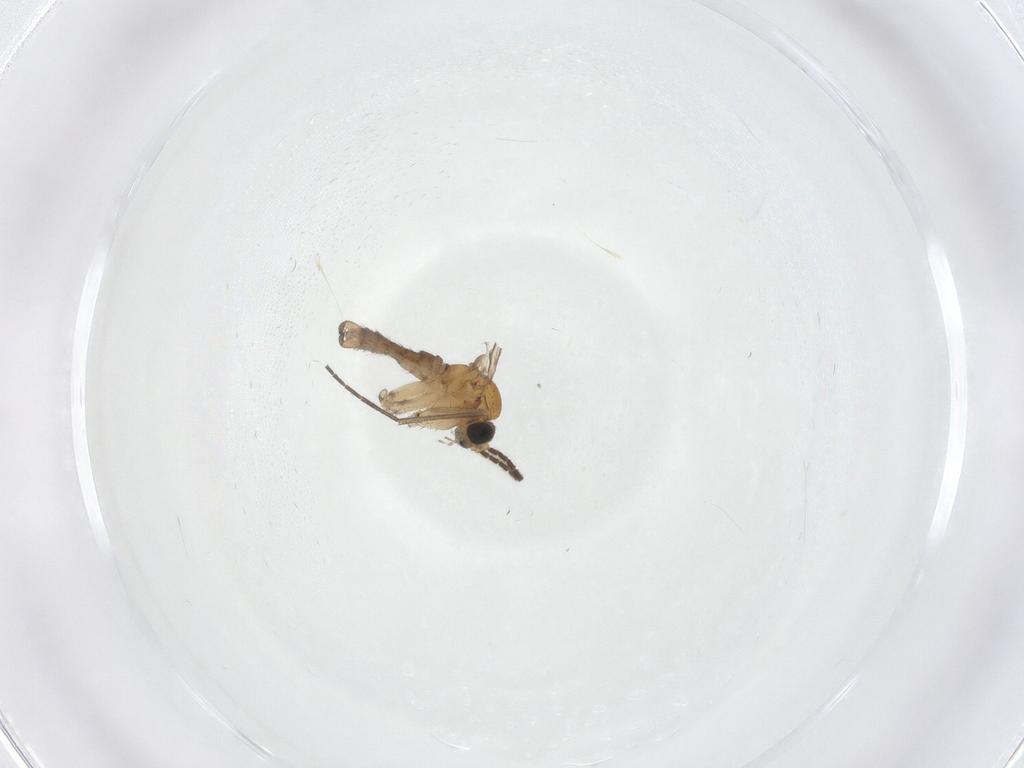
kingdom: Animalia
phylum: Arthropoda
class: Insecta
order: Diptera
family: Sciaridae
